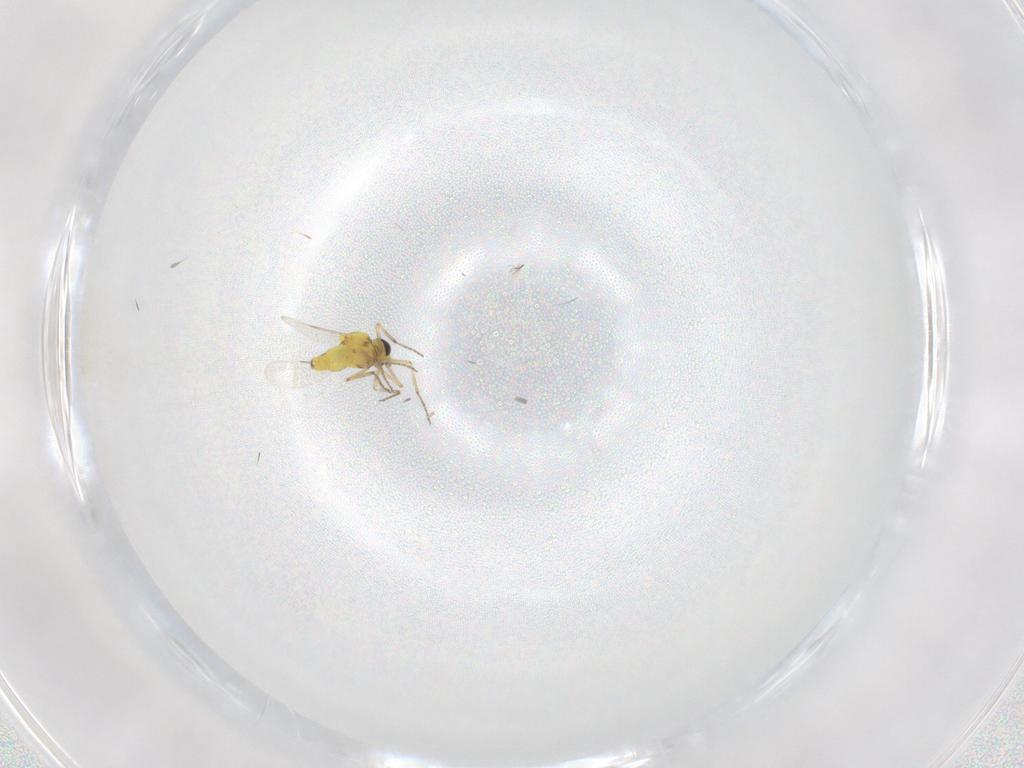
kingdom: Animalia
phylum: Arthropoda
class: Insecta
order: Diptera
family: Ceratopogonidae
